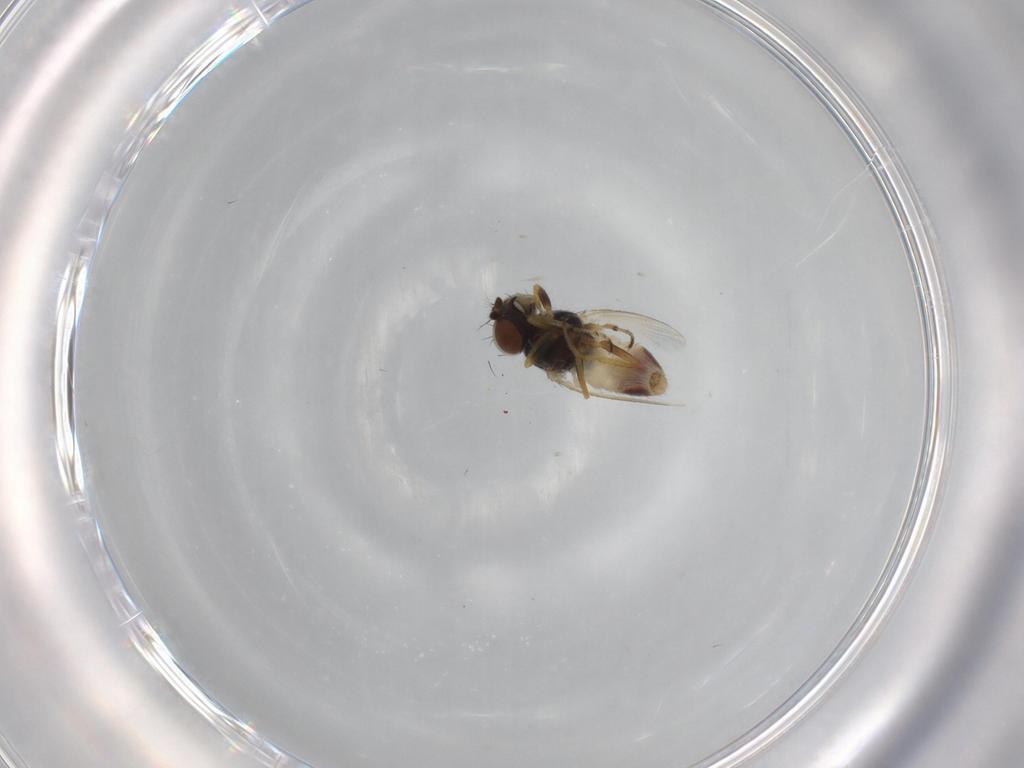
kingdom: Animalia
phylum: Arthropoda
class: Insecta
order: Diptera
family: Ephydridae
